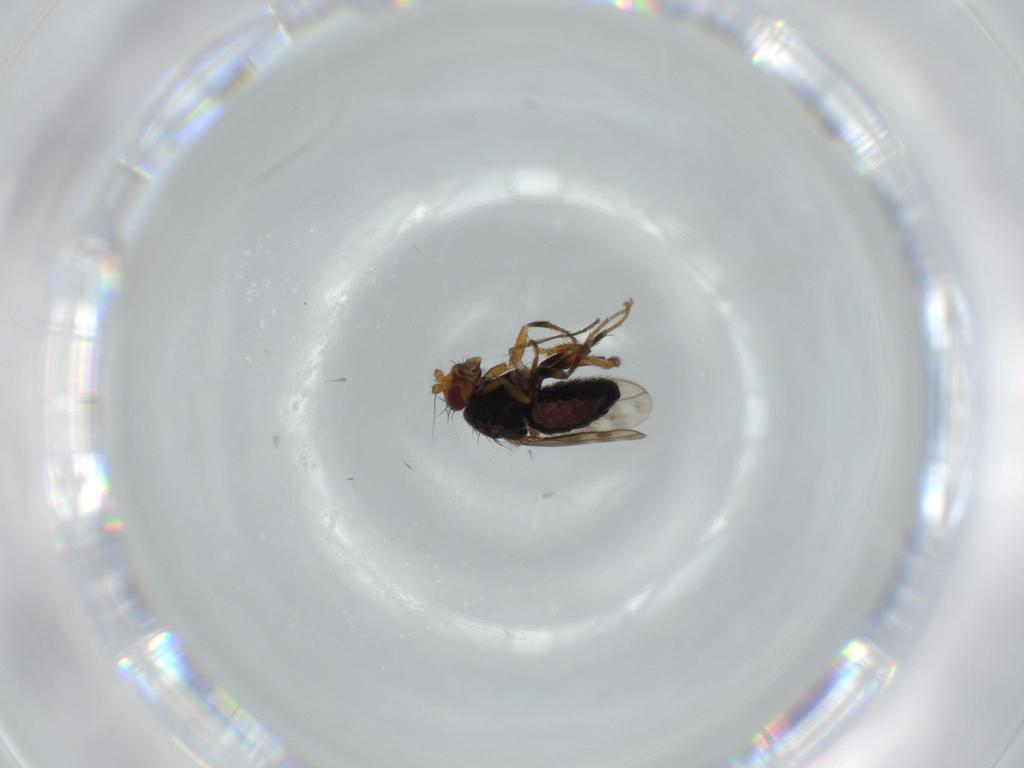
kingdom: Animalia
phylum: Arthropoda
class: Insecta
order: Diptera
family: Sphaeroceridae
